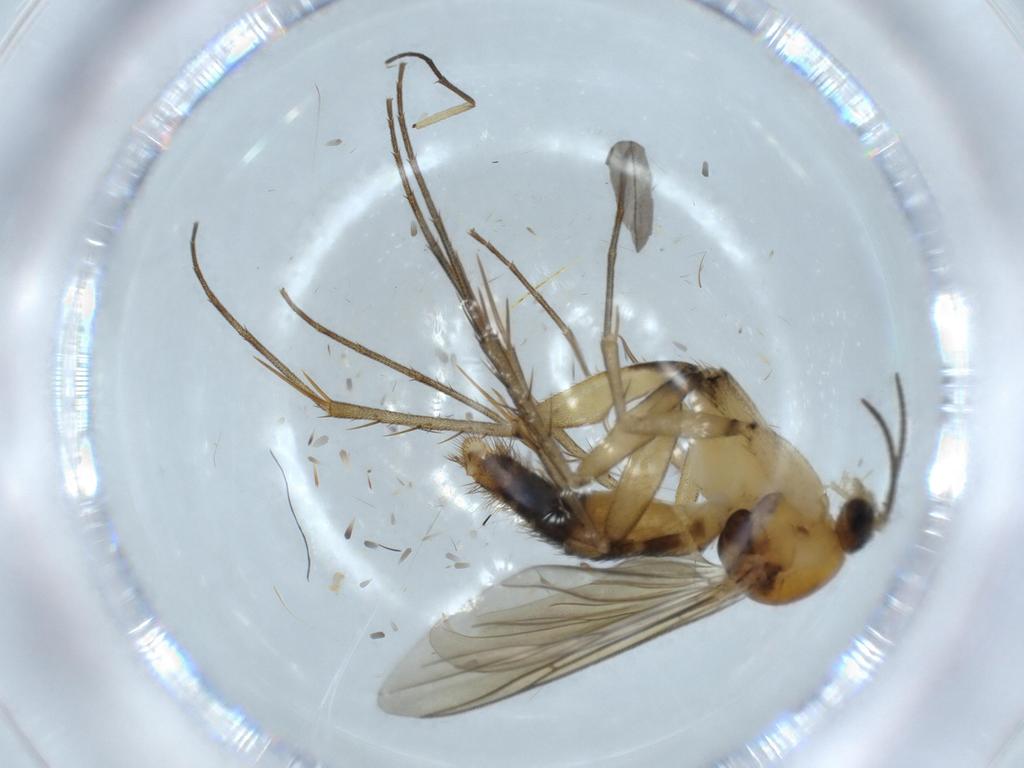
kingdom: Animalia
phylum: Arthropoda
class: Insecta
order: Diptera
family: Mycetophilidae
